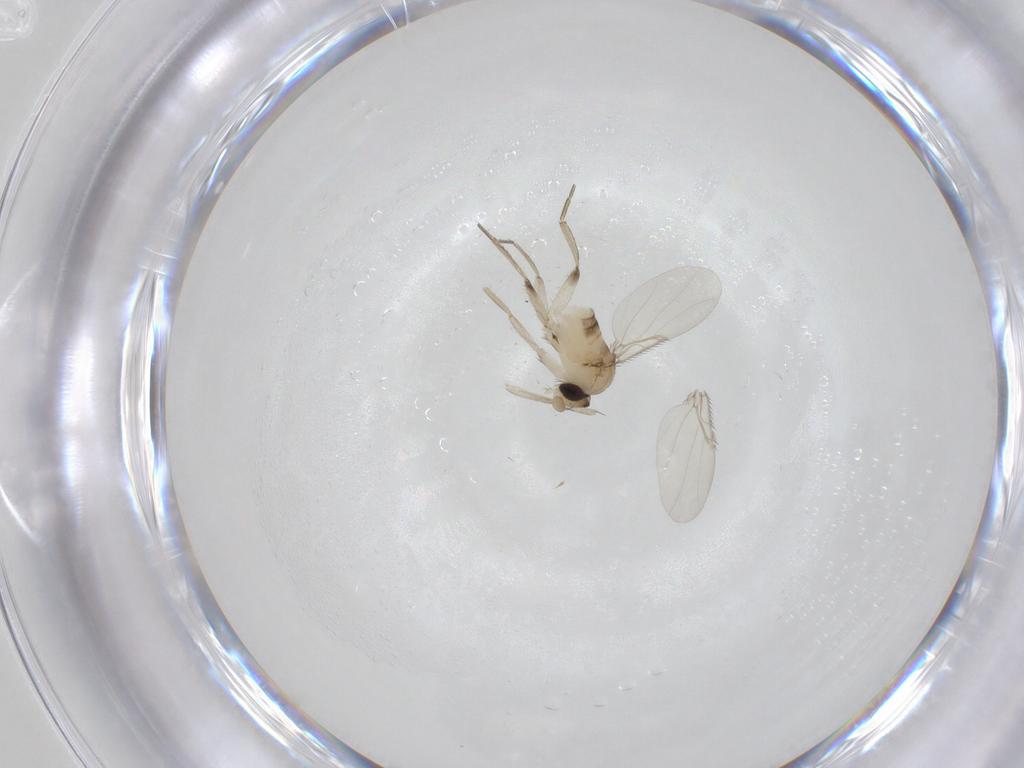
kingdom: Animalia
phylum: Arthropoda
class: Insecta
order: Diptera
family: Phoridae
